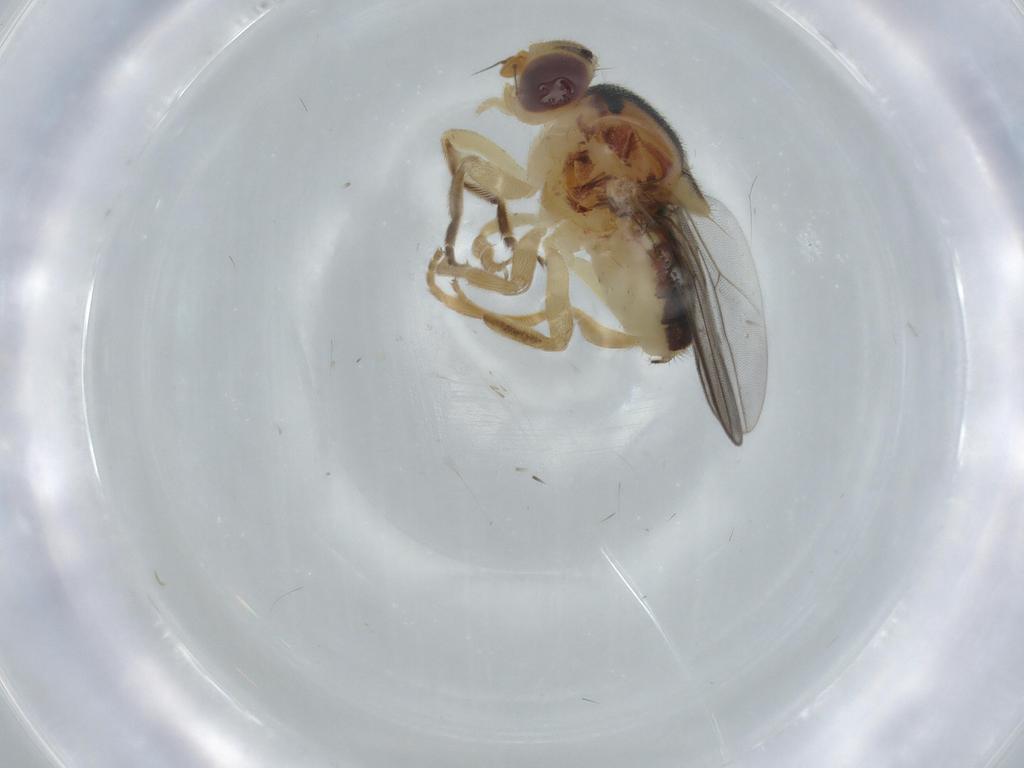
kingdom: Animalia
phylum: Arthropoda
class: Insecta
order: Diptera
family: Chloropidae
